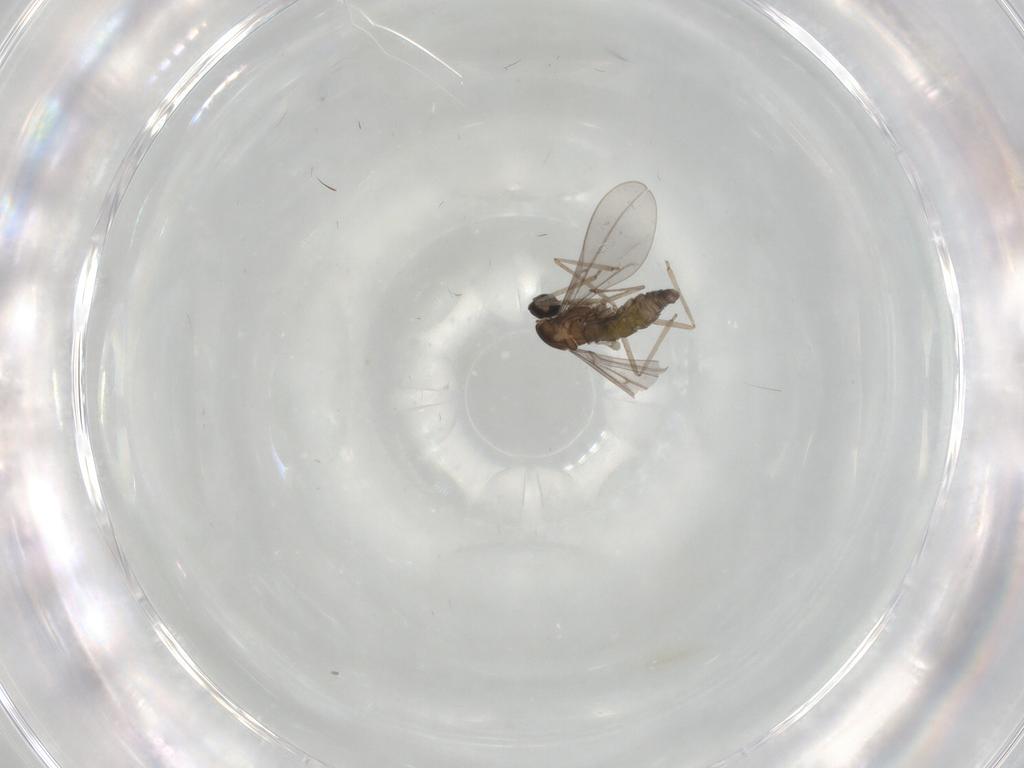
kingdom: Animalia
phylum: Arthropoda
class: Insecta
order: Diptera
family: Cecidomyiidae
